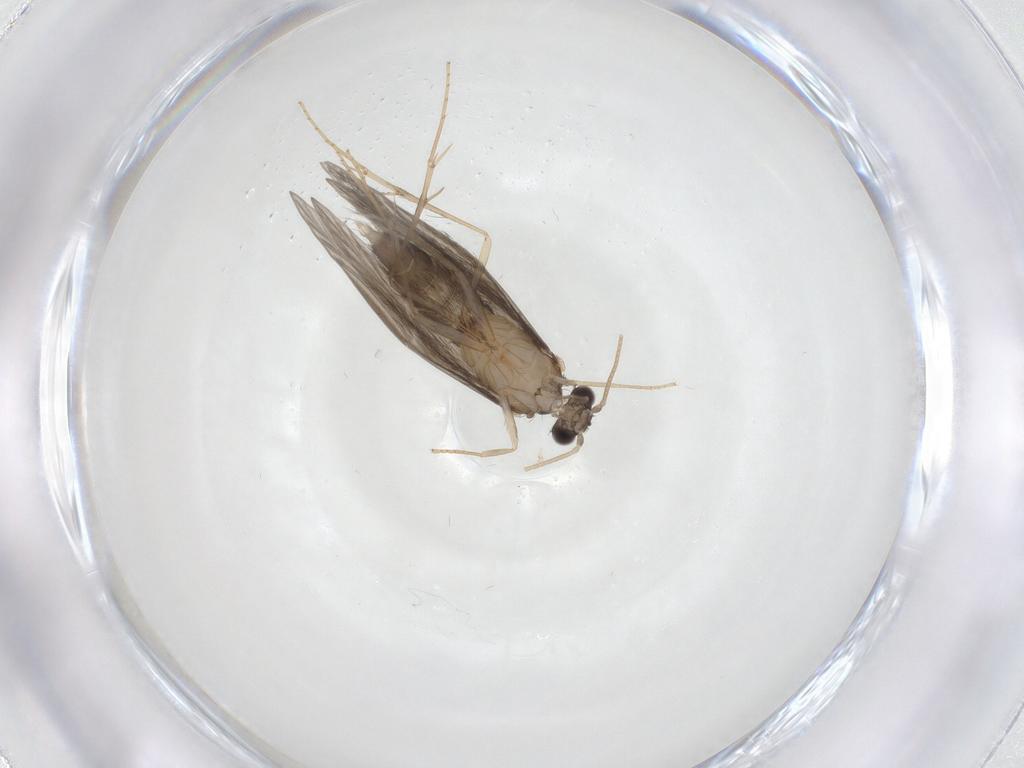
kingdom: Animalia
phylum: Arthropoda
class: Insecta
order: Trichoptera
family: Hydroptilidae
